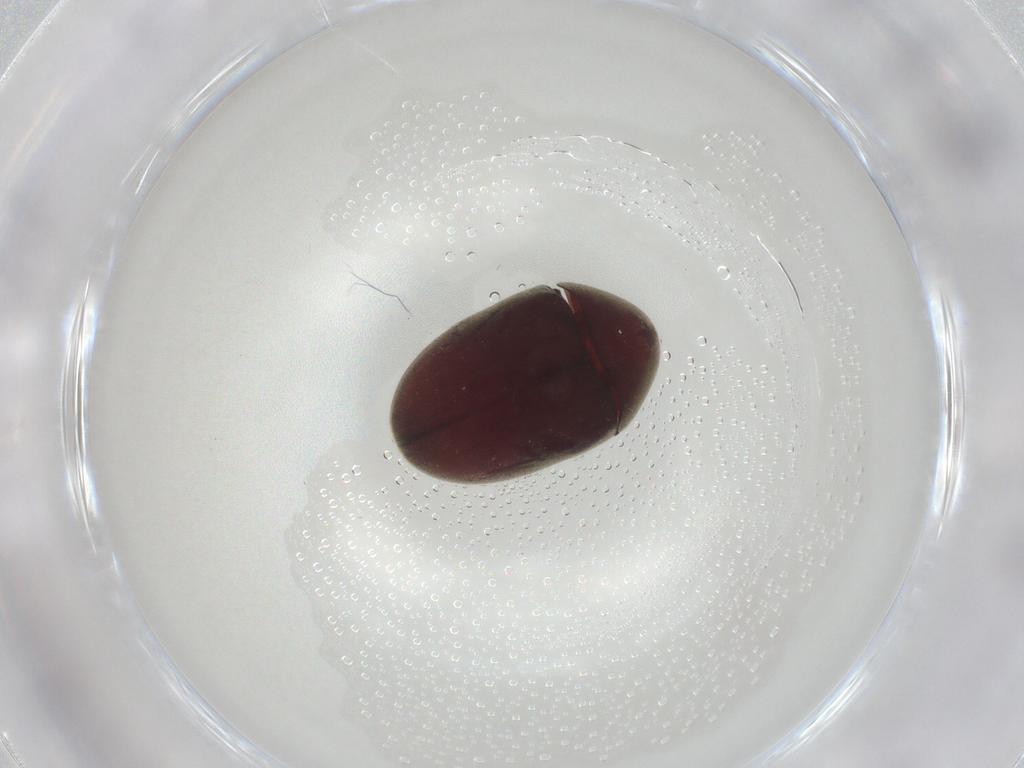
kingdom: Animalia
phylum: Arthropoda
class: Insecta
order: Coleoptera
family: Ptinidae
